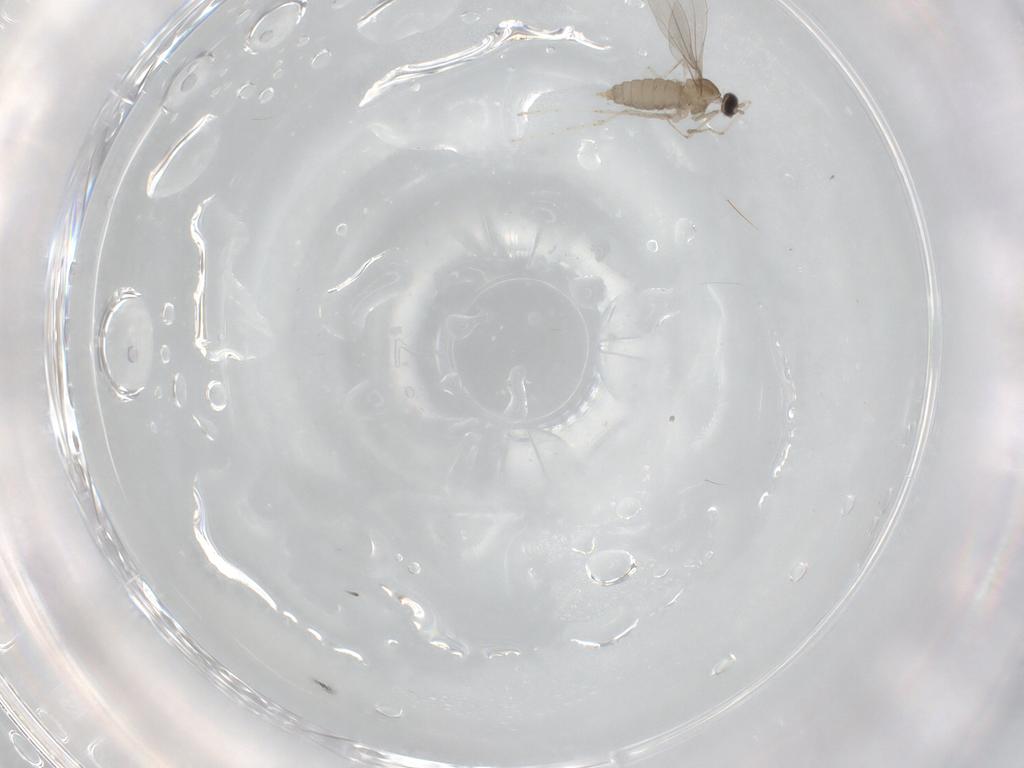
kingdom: Animalia
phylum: Arthropoda
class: Insecta
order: Diptera
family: Cecidomyiidae
